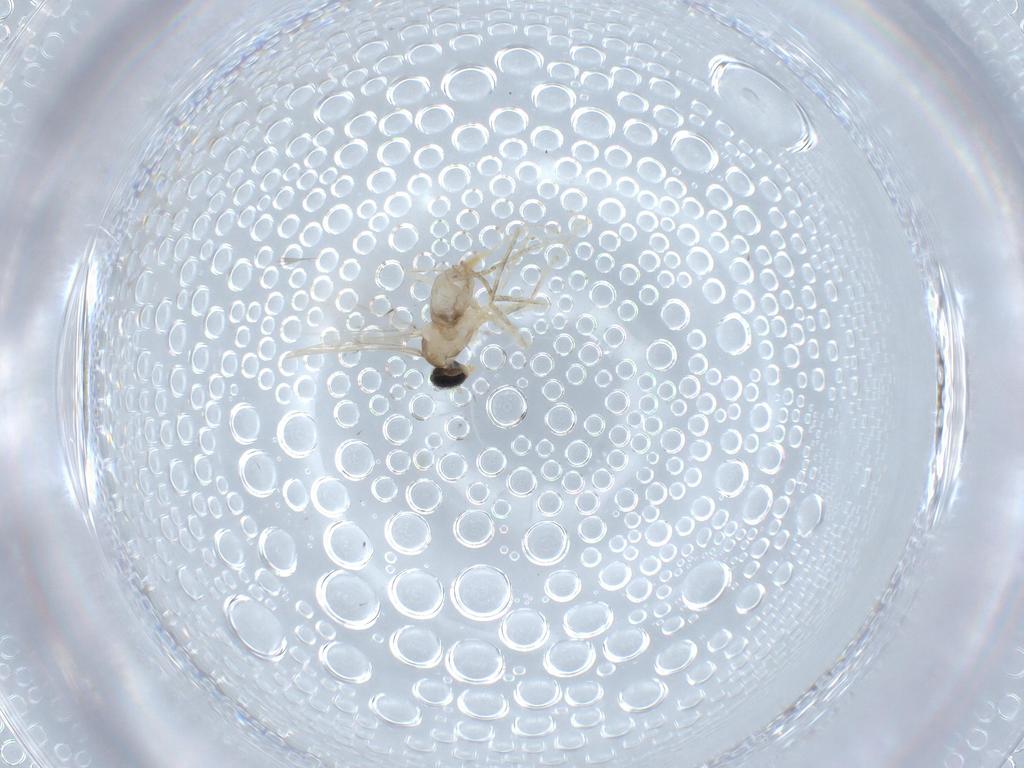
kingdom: Animalia
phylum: Arthropoda
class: Insecta
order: Diptera
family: Cecidomyiidae
